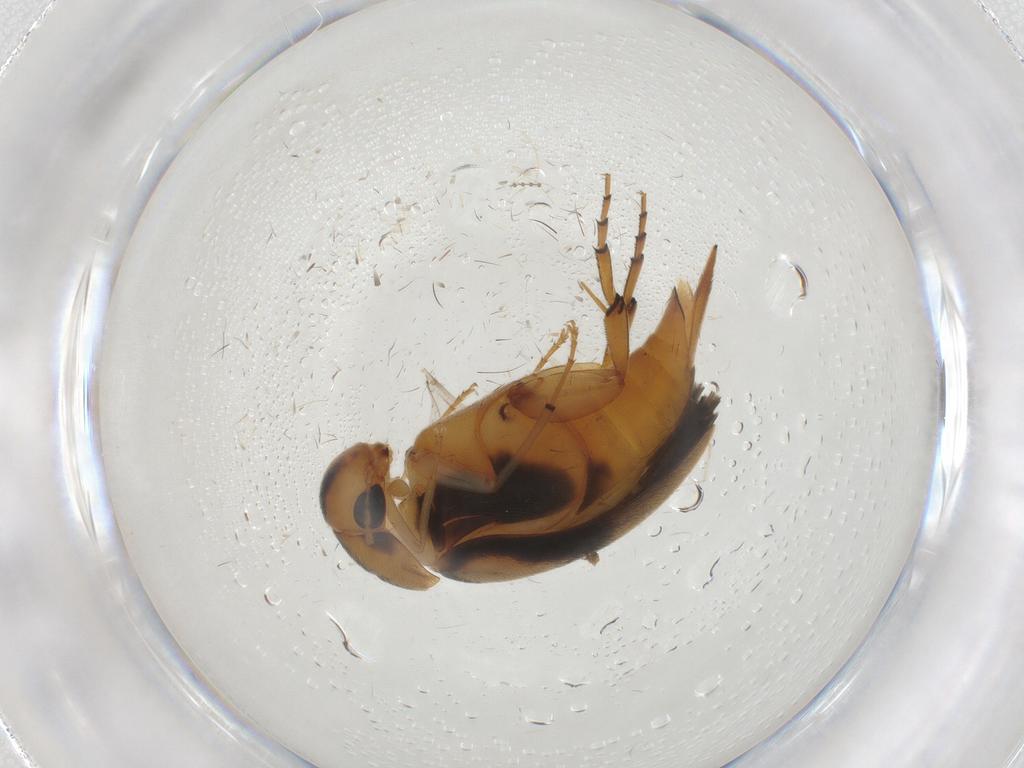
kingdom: Animalia
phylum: Arthropoda
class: Insecta
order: Coleoptera
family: Mordellidae
